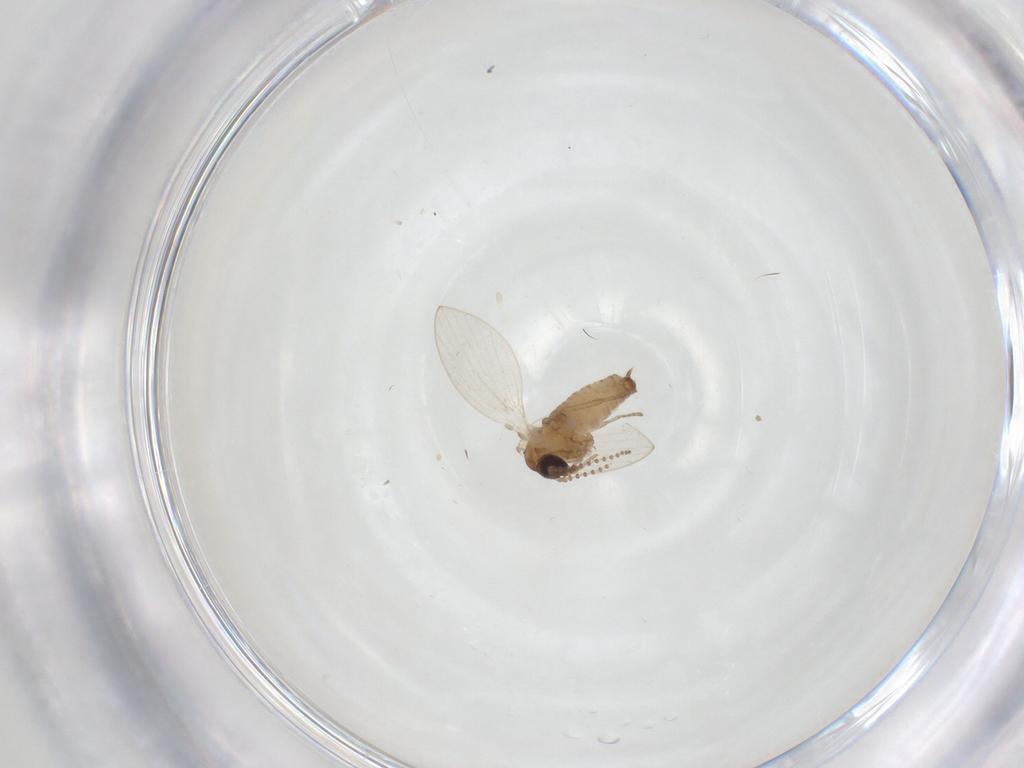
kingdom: Animalia
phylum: Arthropoda
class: Insecta
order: Diptera
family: Psychodidae
